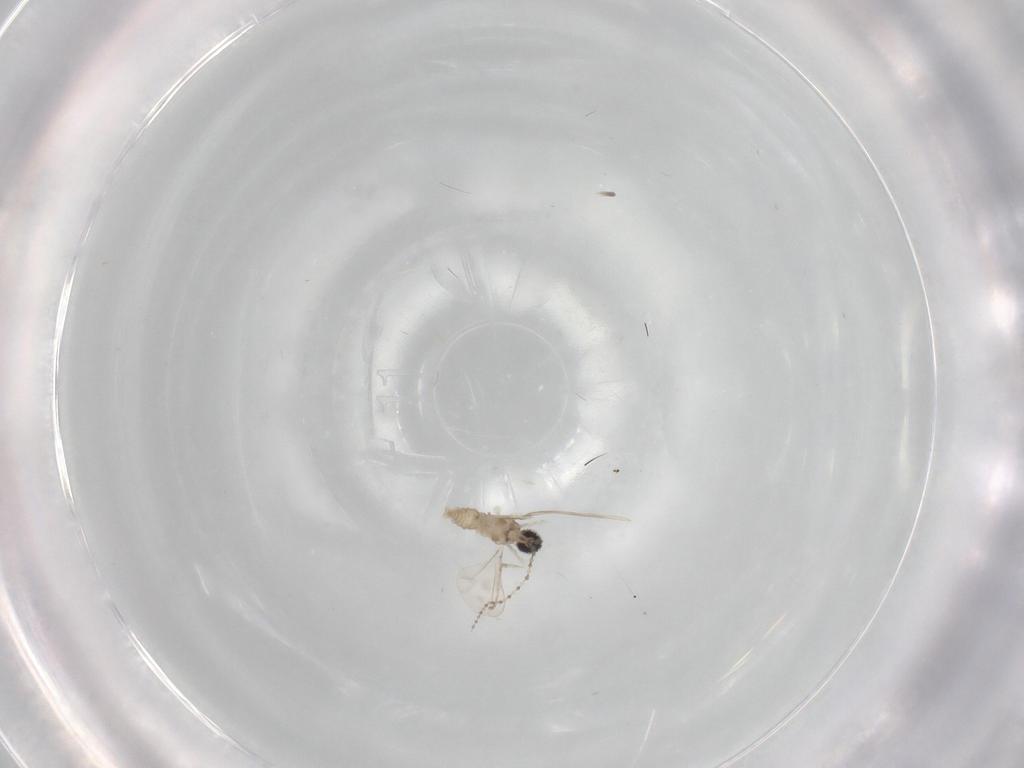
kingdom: Animalia
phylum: Arthropoda
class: Insecta
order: Diptera
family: Cecidomyiidae
